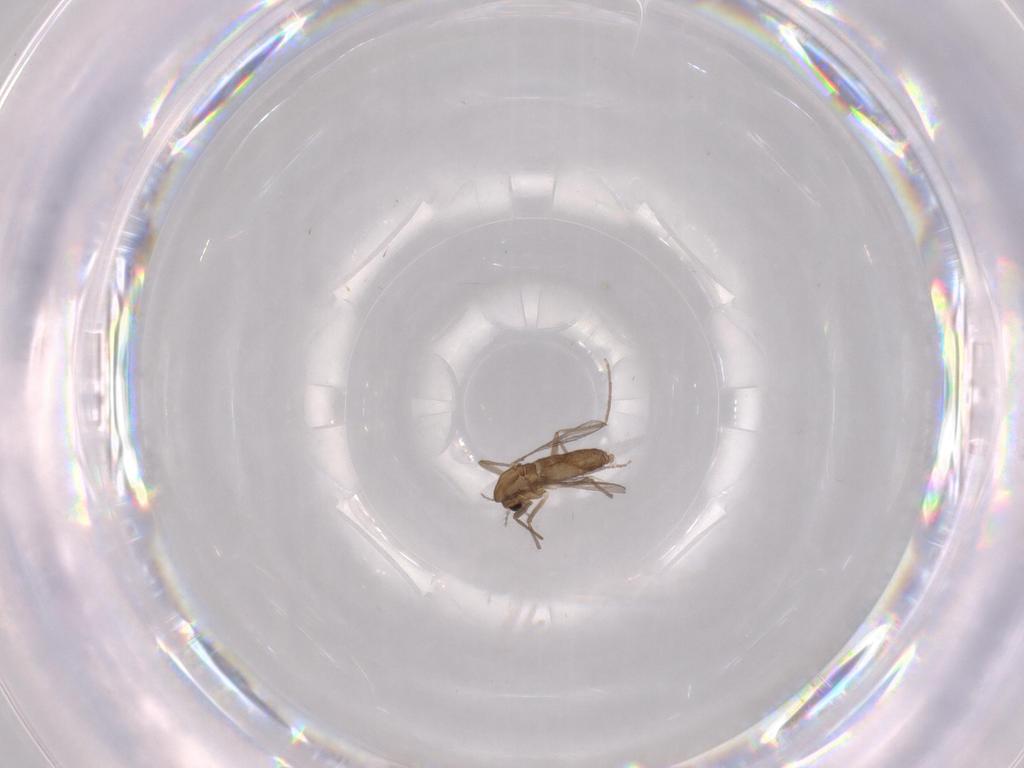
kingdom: Animalia
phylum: Arthropoda
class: Insecta
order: Diptera
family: Chironomidae
